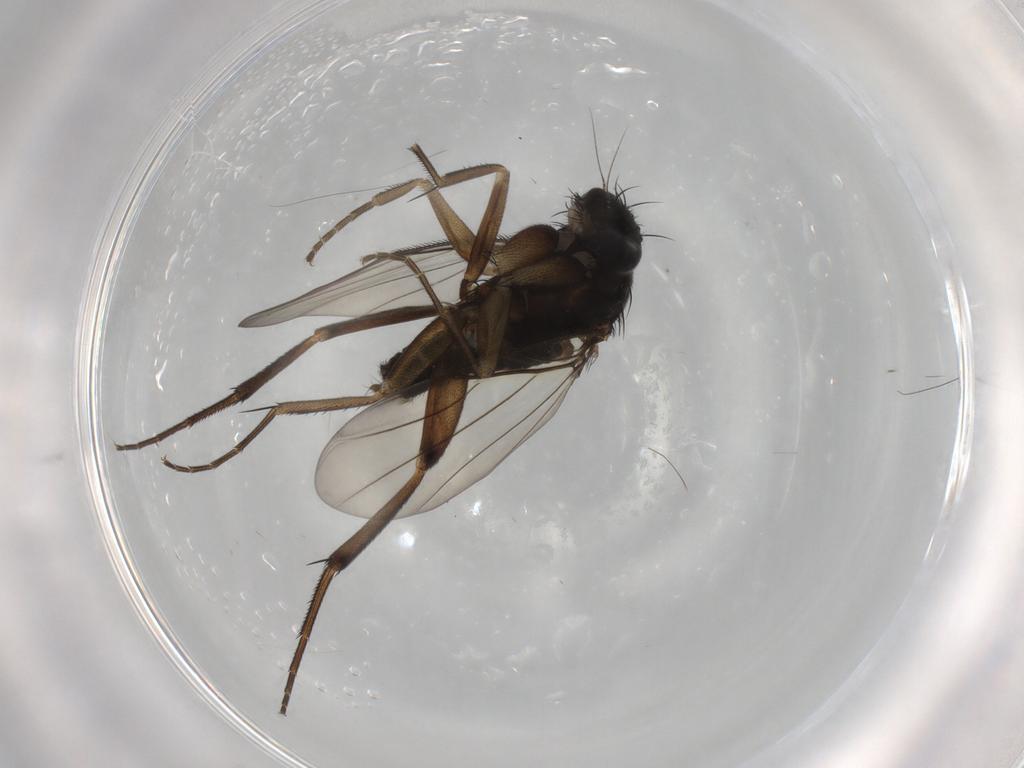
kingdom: Animalia
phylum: Arthropoda
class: Insecta
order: Diptera
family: Phoridae
